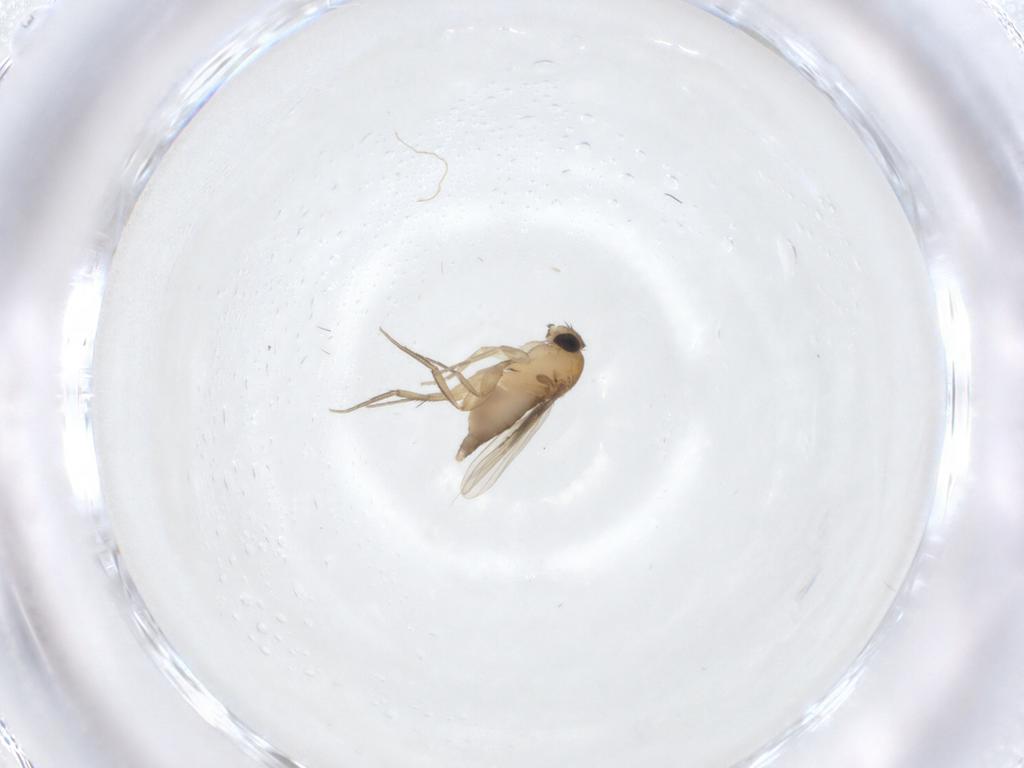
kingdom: Animalia
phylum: Arthropoda
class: Insecta
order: Diptera
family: Phoridae
